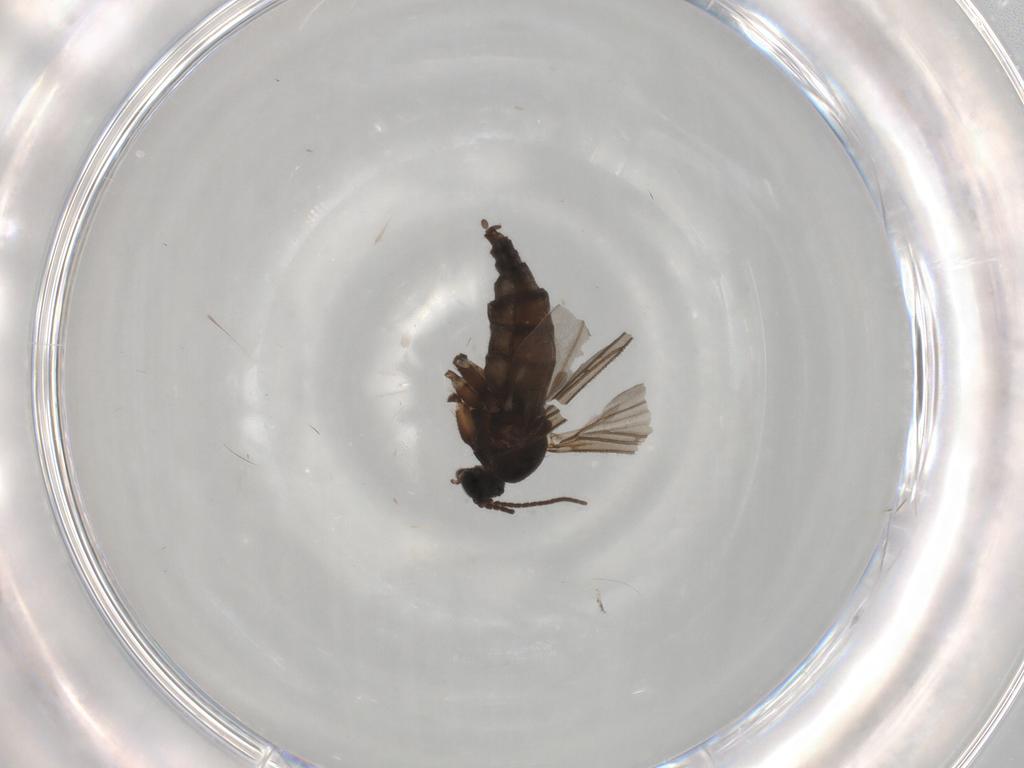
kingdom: Animalia
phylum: Arthropoda
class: Insecta
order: Diptera
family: Sciaridae
